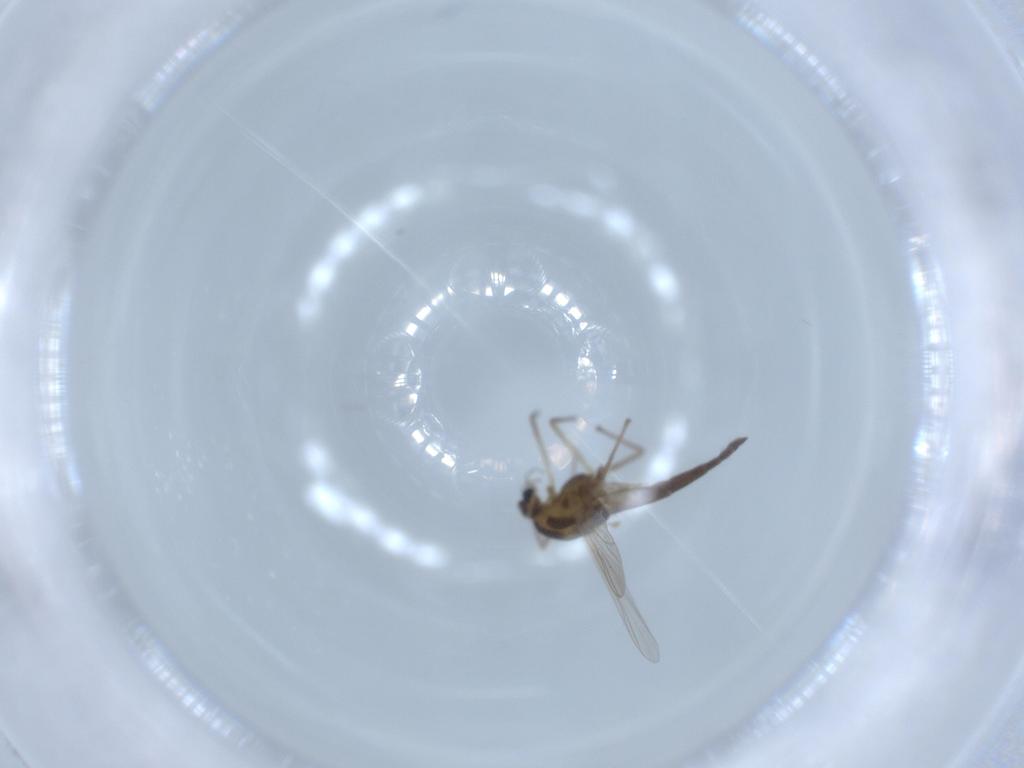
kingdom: Animalia
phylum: Arthropoda
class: Insecta
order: Diptera
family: Chironomidae
